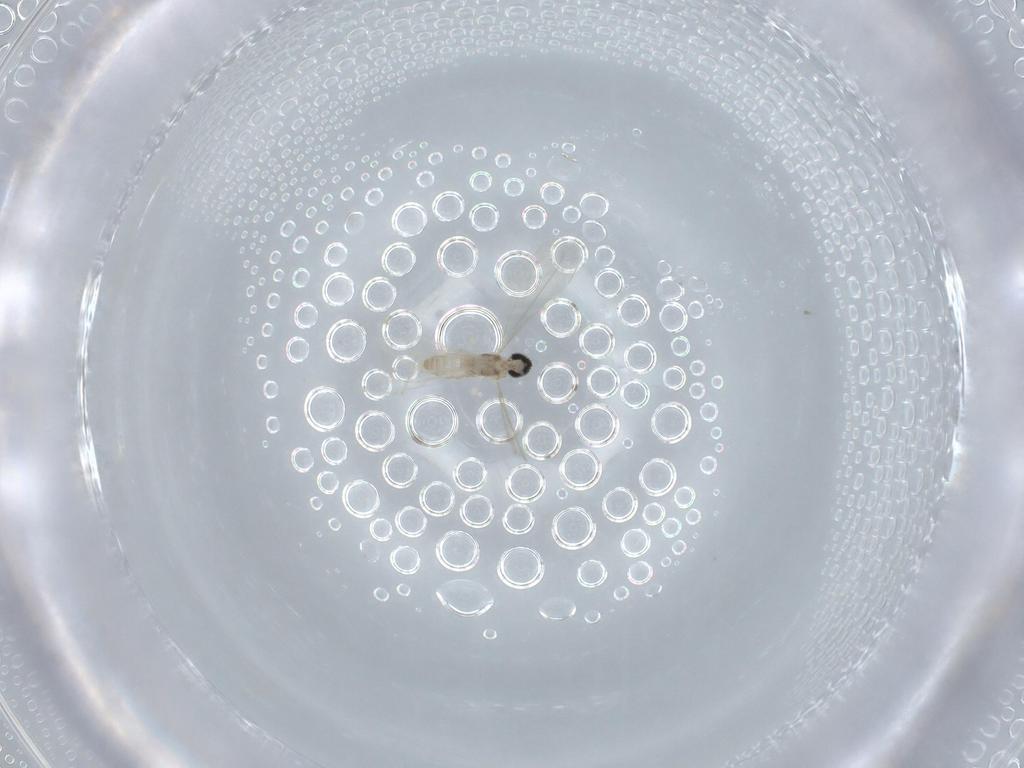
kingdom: Animalia
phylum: Arthropoda
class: Insecta
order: Diptera
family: Cecidomyiidae
